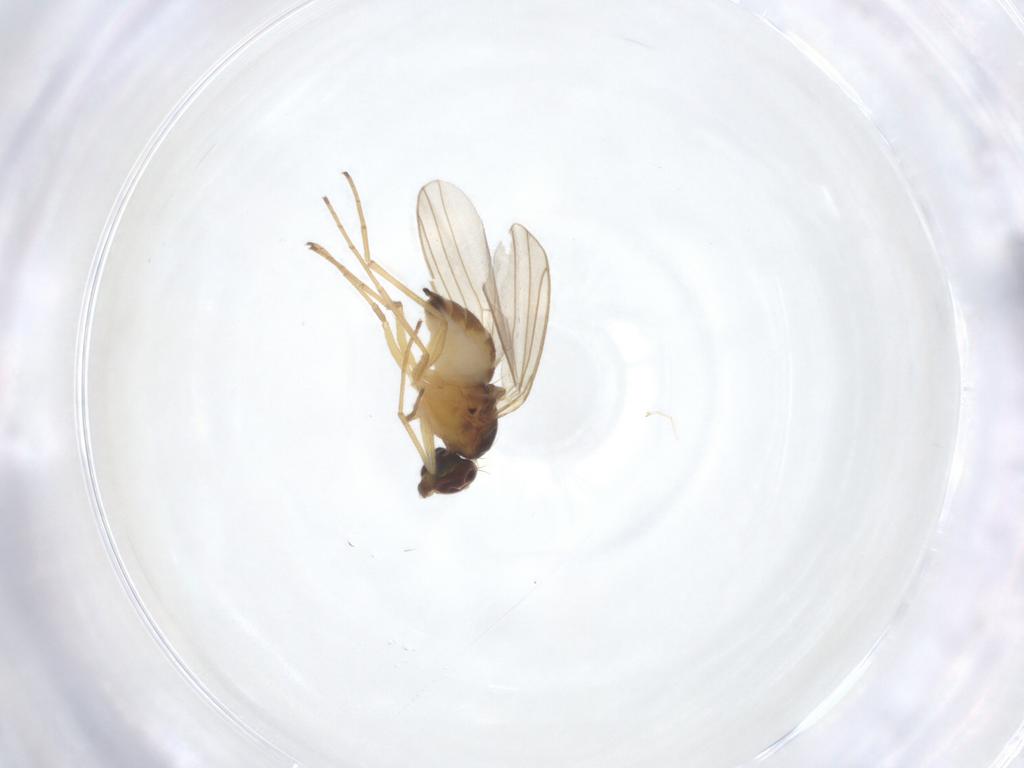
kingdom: Animalia
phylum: Arthropoda
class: Insecta
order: Diptera
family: Dolichopodidae
